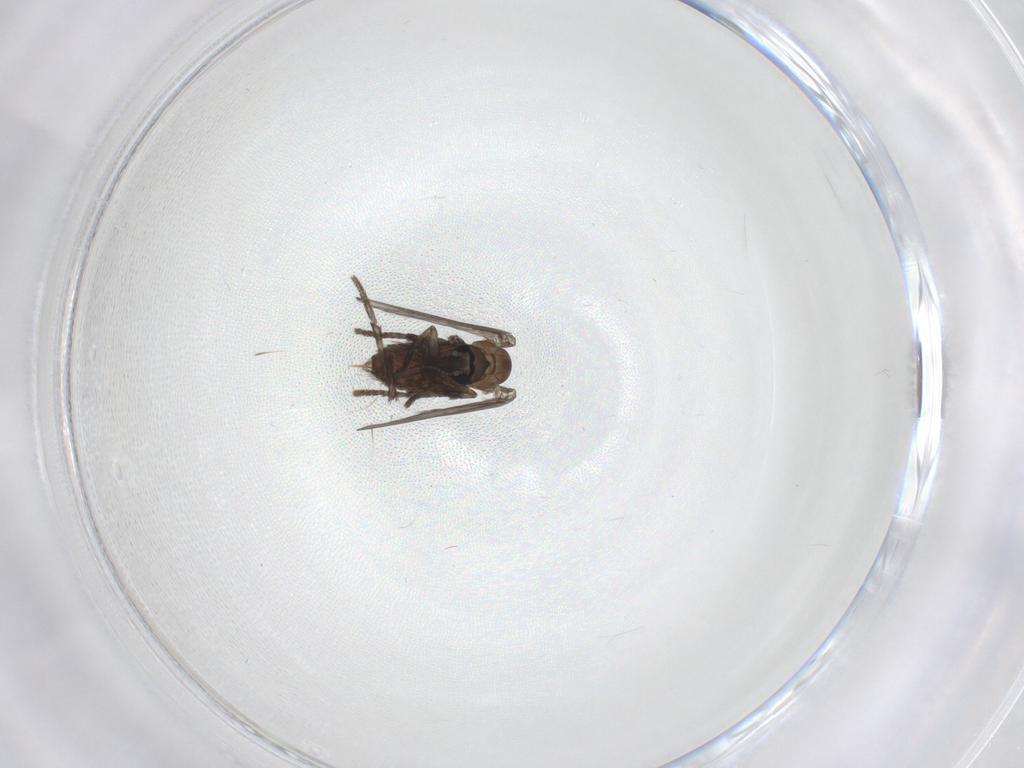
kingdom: Animalia
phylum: Arthropoda
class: Insecta
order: Diptera
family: Psychodidae
